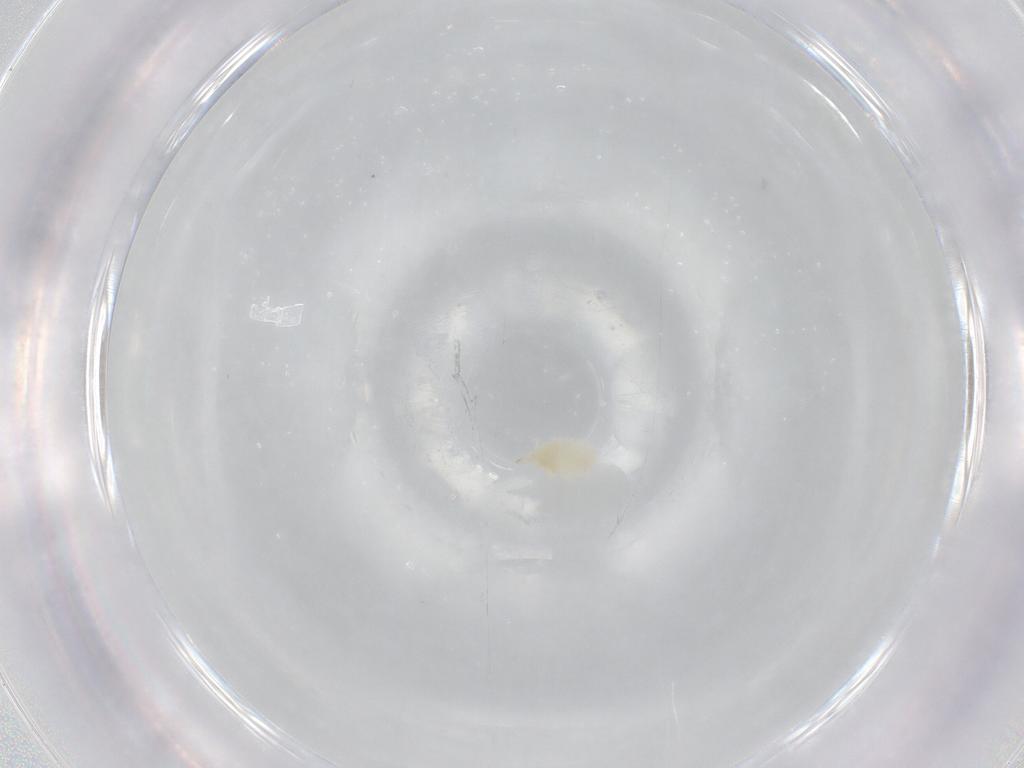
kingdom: Animalia
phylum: Arthropoda
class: Arachnida
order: Trombidiformes
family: Bdellidae
